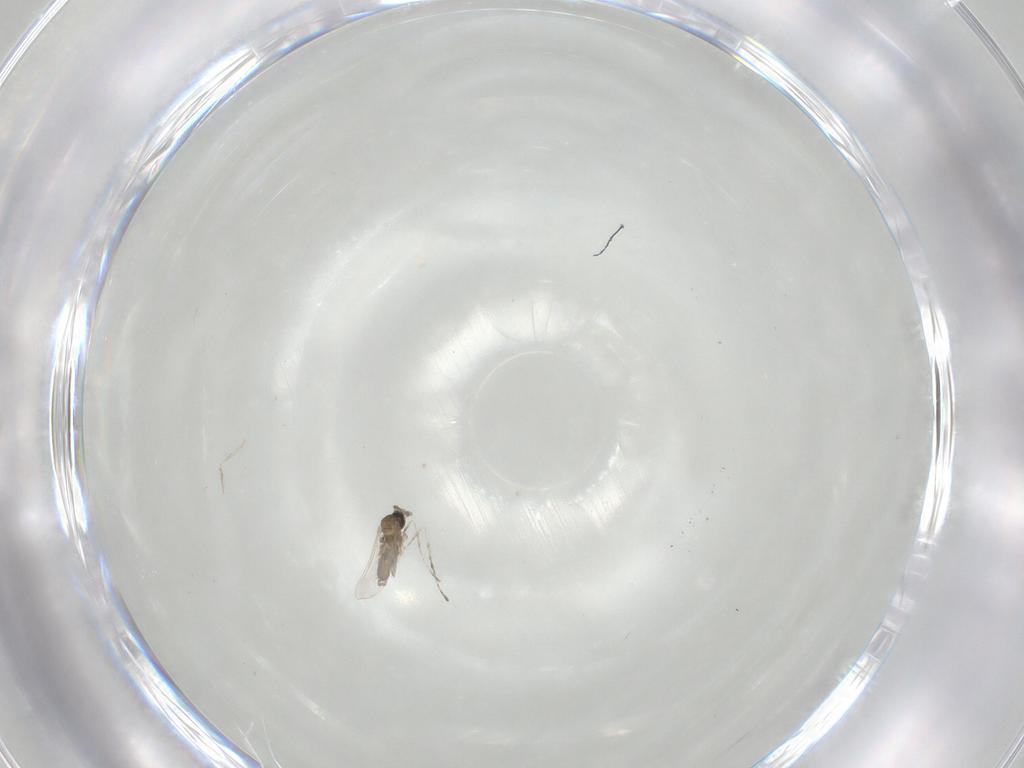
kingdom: Animalia
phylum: Arthropoda
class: Insecta
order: Diptera
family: Cecidomyiidae
